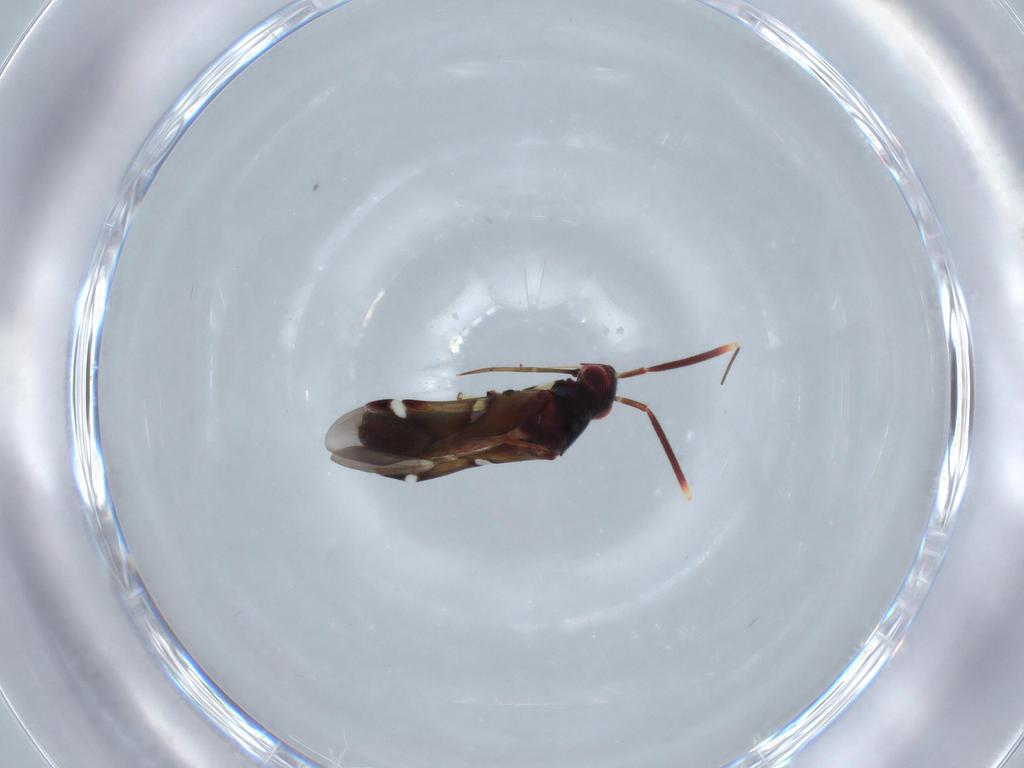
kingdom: Animalia
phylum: Arthropoda
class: Insecta
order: Hemiptera
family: Miridae
